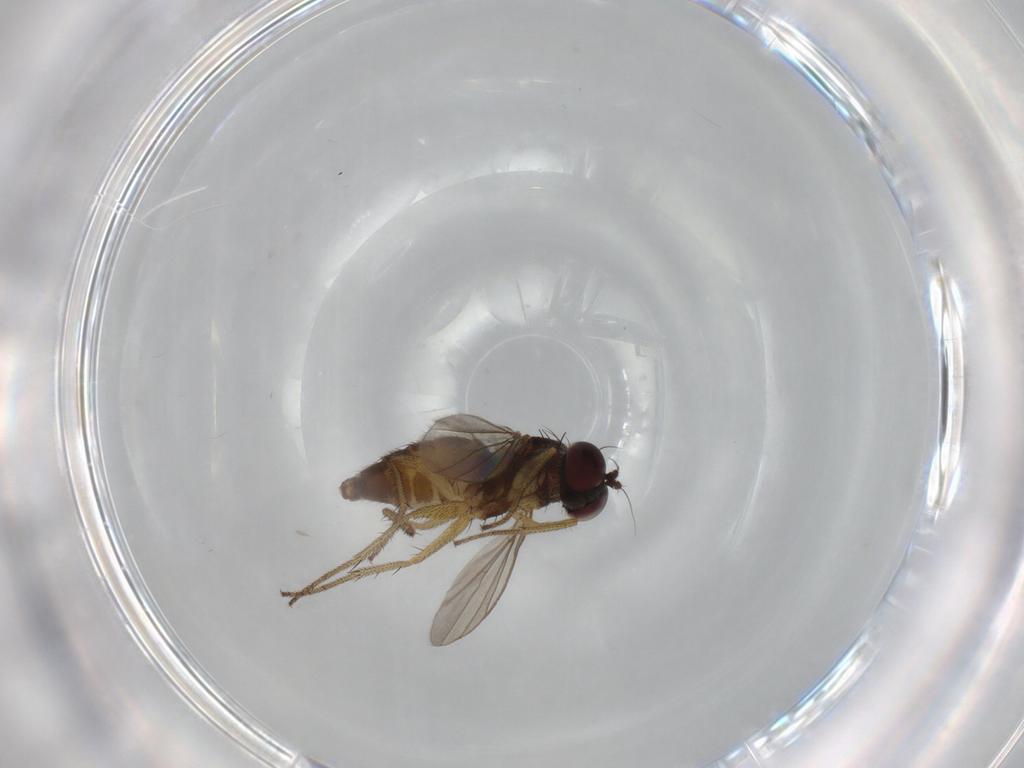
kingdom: Animalia
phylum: Arthropoda
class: Insecta
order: Diptera
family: Dolichopodidae
